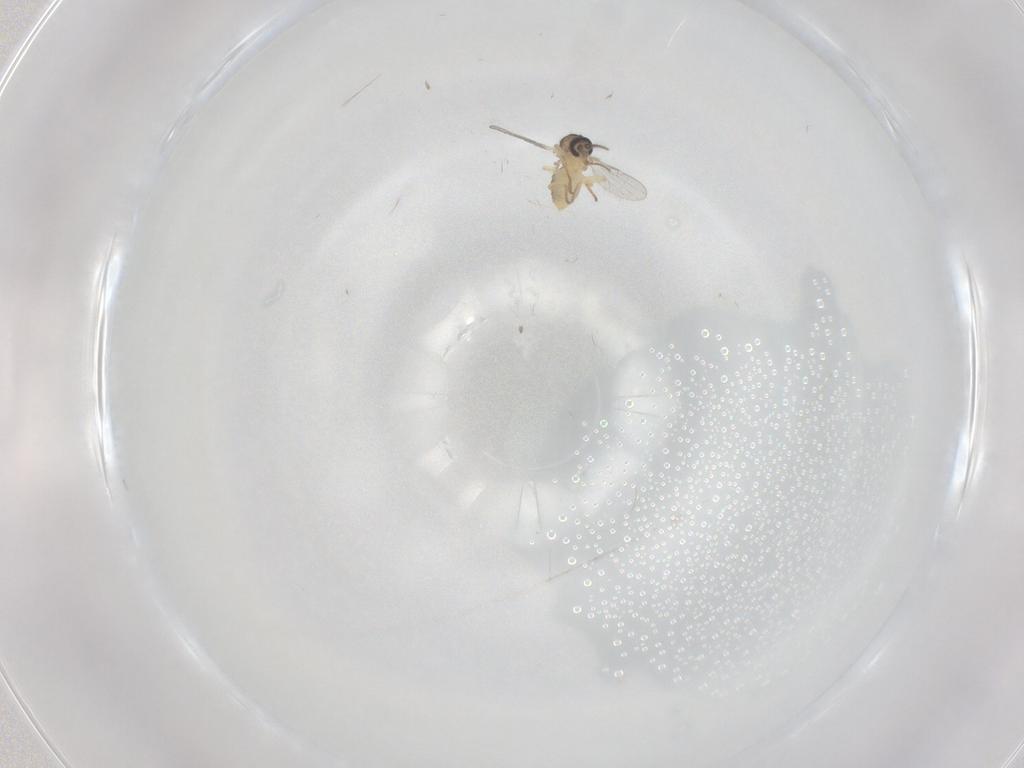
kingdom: Animalia
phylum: Arthropoda
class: Insecta
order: Diptera
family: Ceratopogonidae
